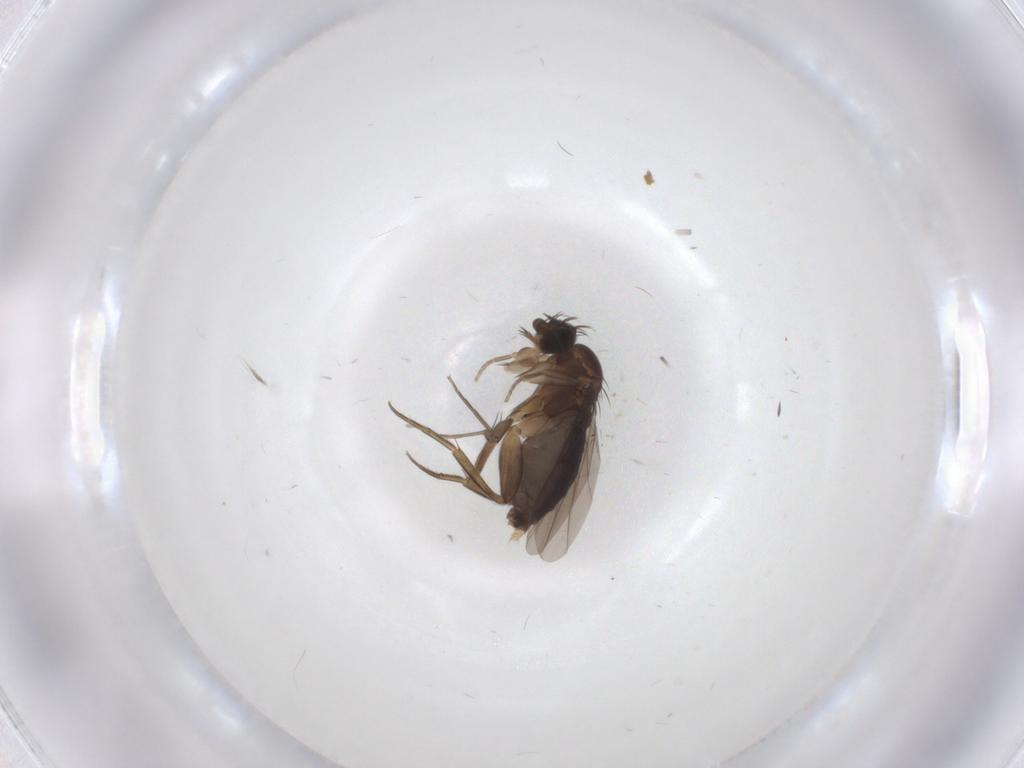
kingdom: Animalia
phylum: Arthropoda
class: Insecta
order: Diptera
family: Phoridae
